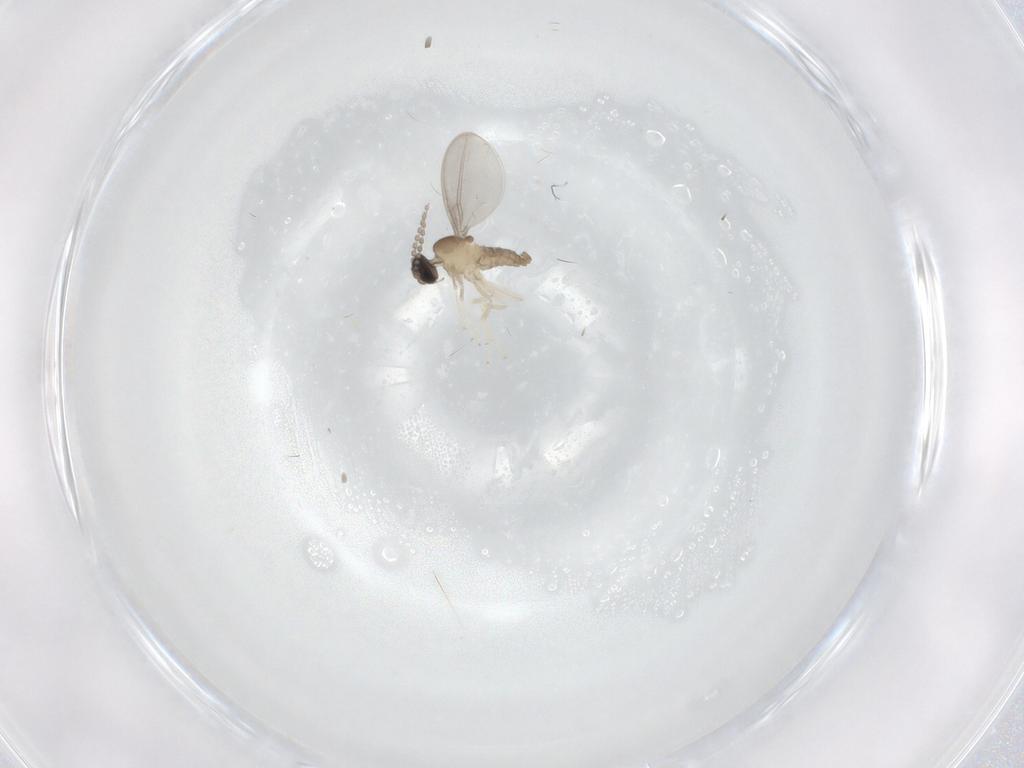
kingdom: Animalia
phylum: Arthropoda
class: Insecta
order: Diptera
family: Cecidomyiidae
